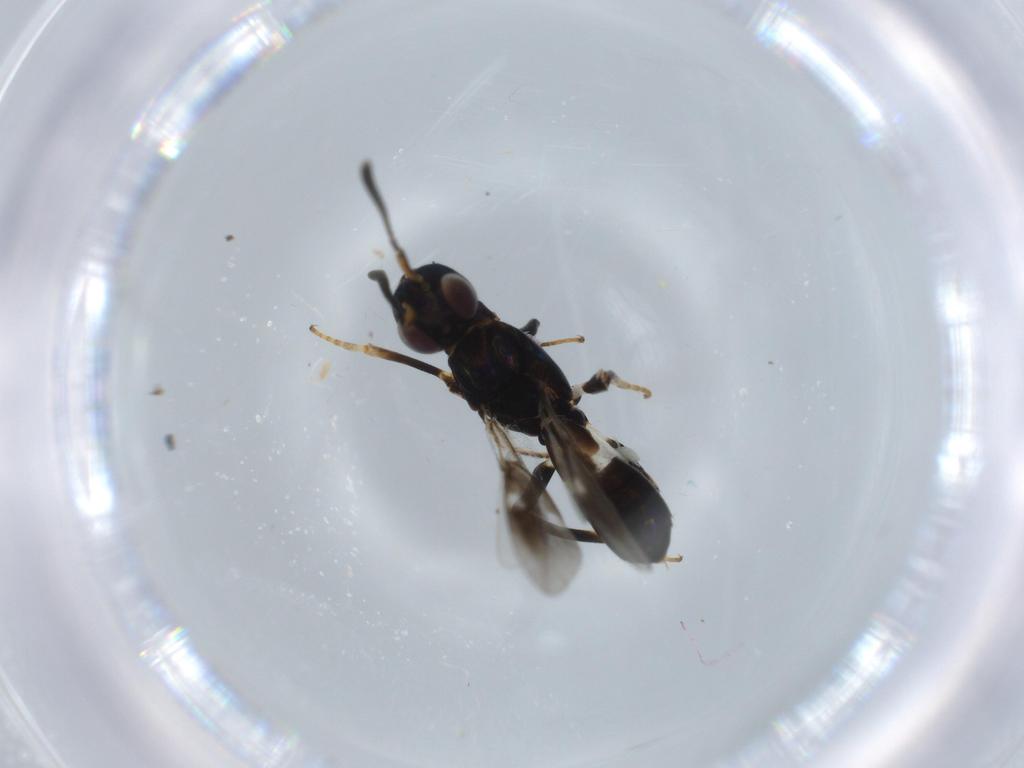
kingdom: Animalia
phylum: Arthropoda
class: Insecta
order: Hymenoptera
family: Eupelmidae
